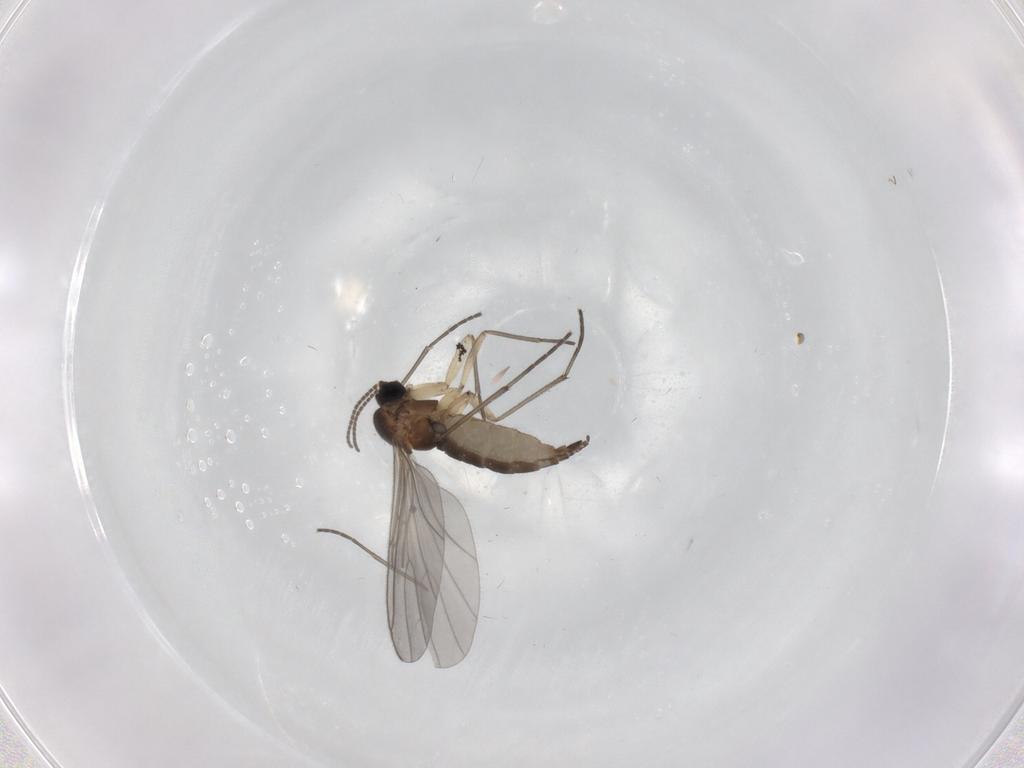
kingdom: Animalia
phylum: Arthropoda
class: Insecta
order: Diptera
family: Sciaridae
